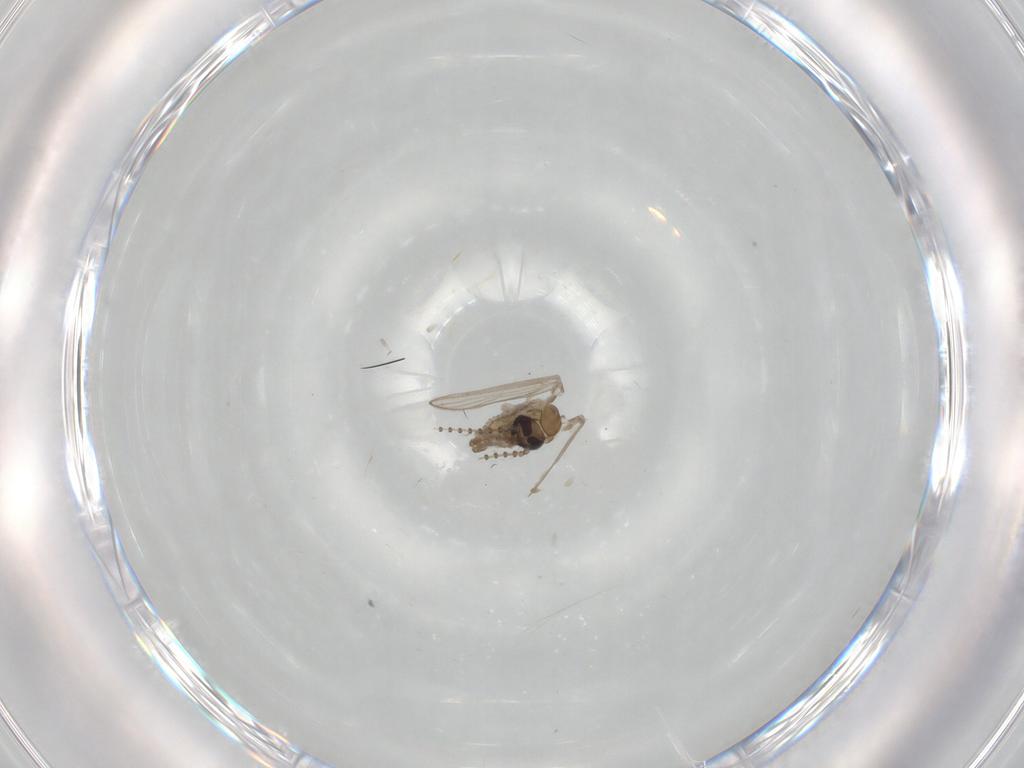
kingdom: Animalia
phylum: Arthropoda
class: Insecta
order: Diptera
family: Psychodidae
